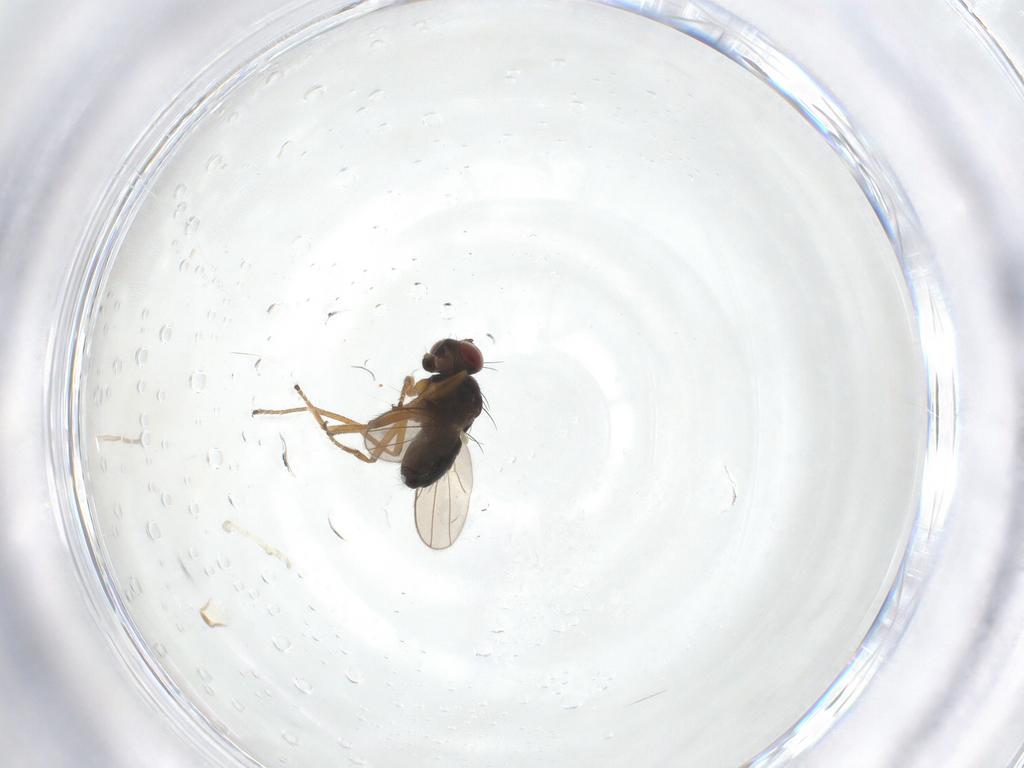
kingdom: Animalia
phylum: Arthropoda
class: Insecta
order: Diptera
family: Ephydridae
